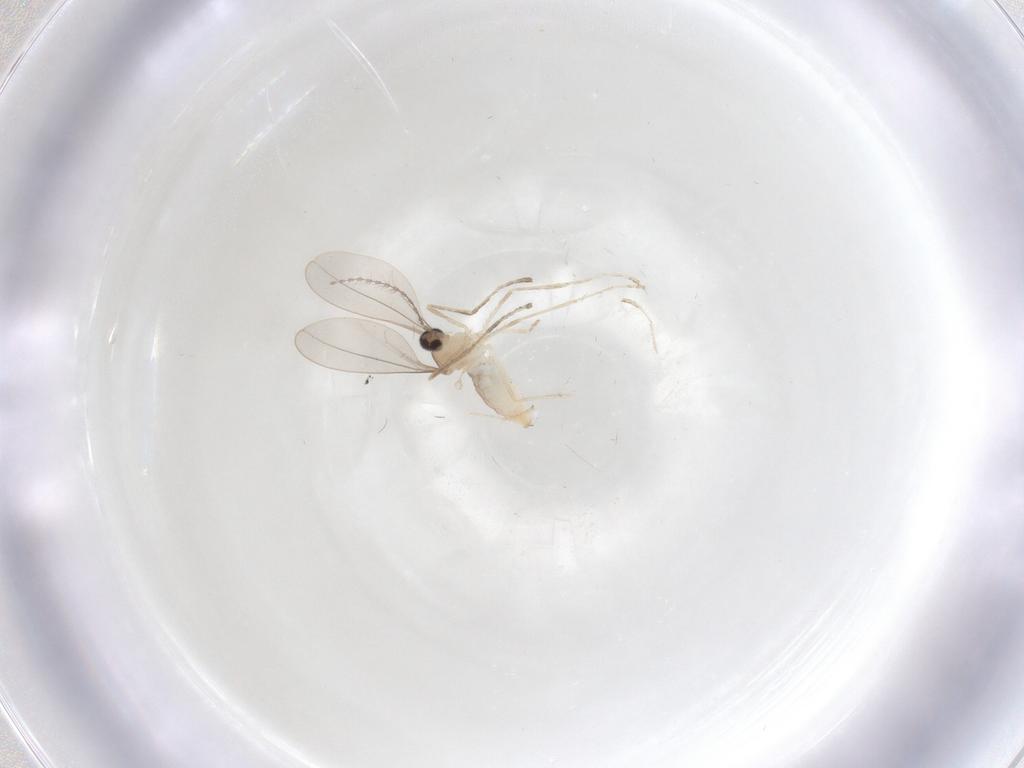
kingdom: Animalia
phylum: Arthropoda
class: Insecta
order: Diptera
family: Cecidomyiidae
